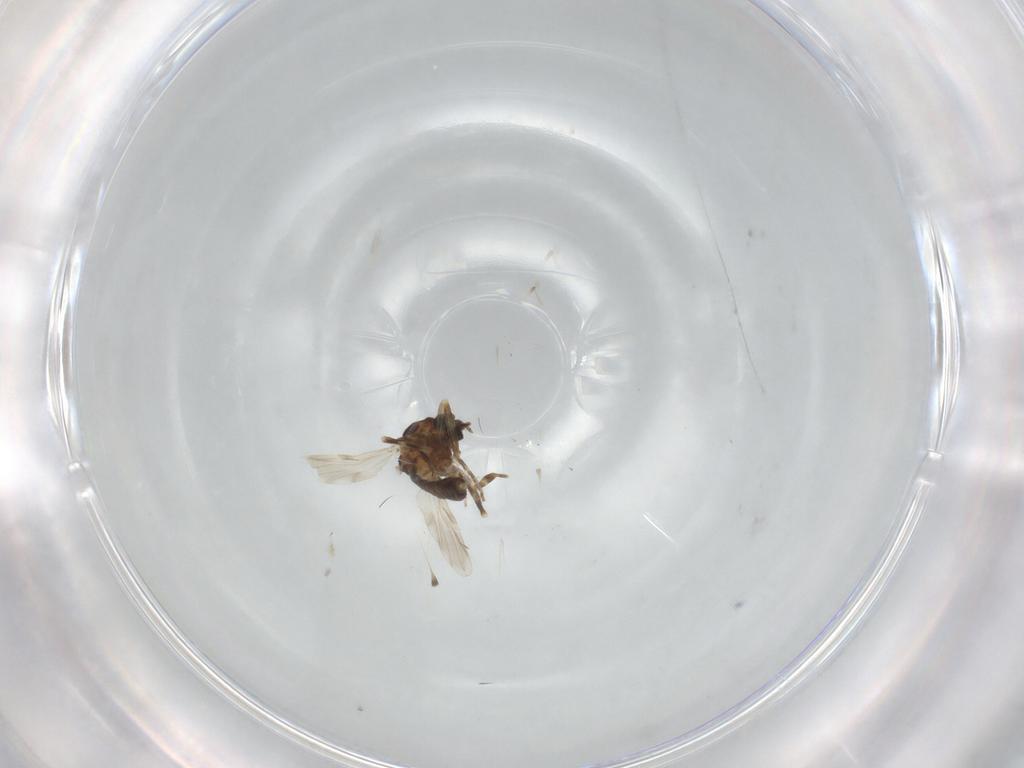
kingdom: Animalia
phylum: Arthropoda
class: Insecta
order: Diptera
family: Ceratopogonidae
